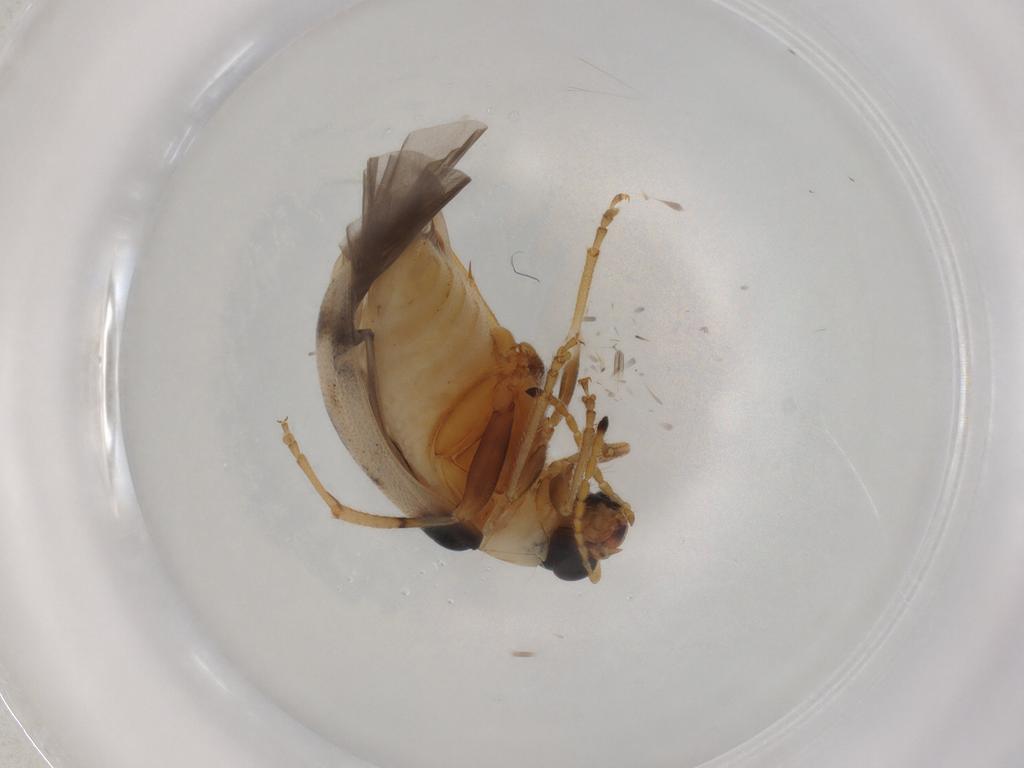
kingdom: Animalia
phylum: Arthropoda
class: Insecta
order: Coleoptera
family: Chrysomelidae
